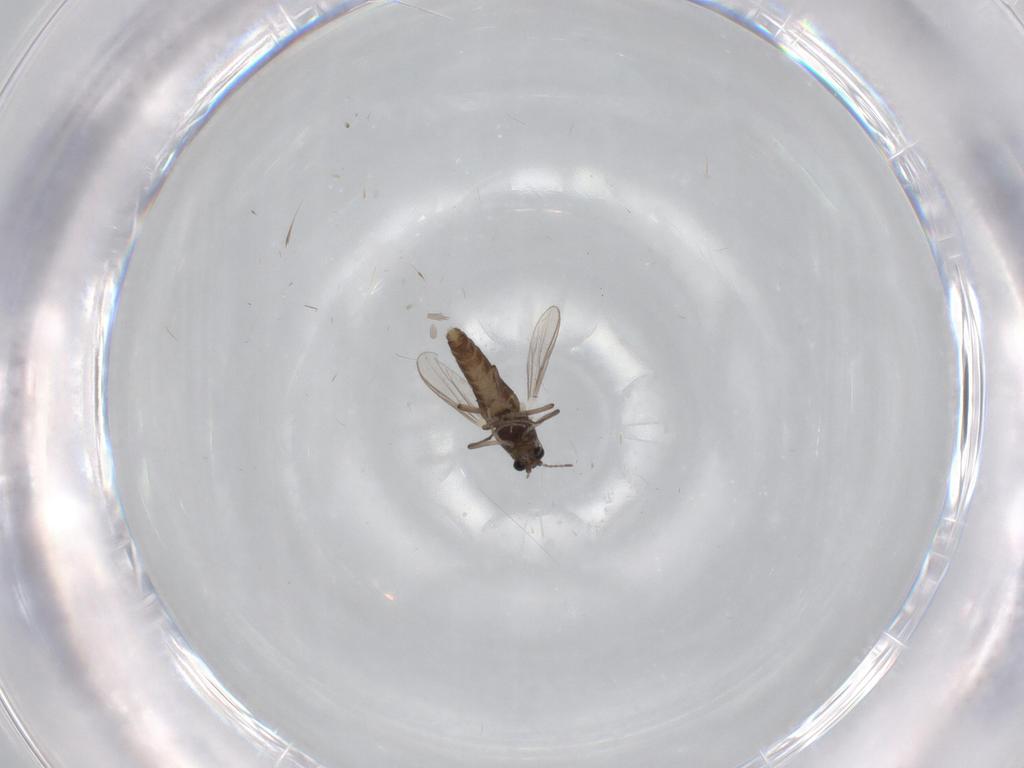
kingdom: Animalia
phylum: Arthropoda
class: Insecta
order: Diptera
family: Chironomidae
